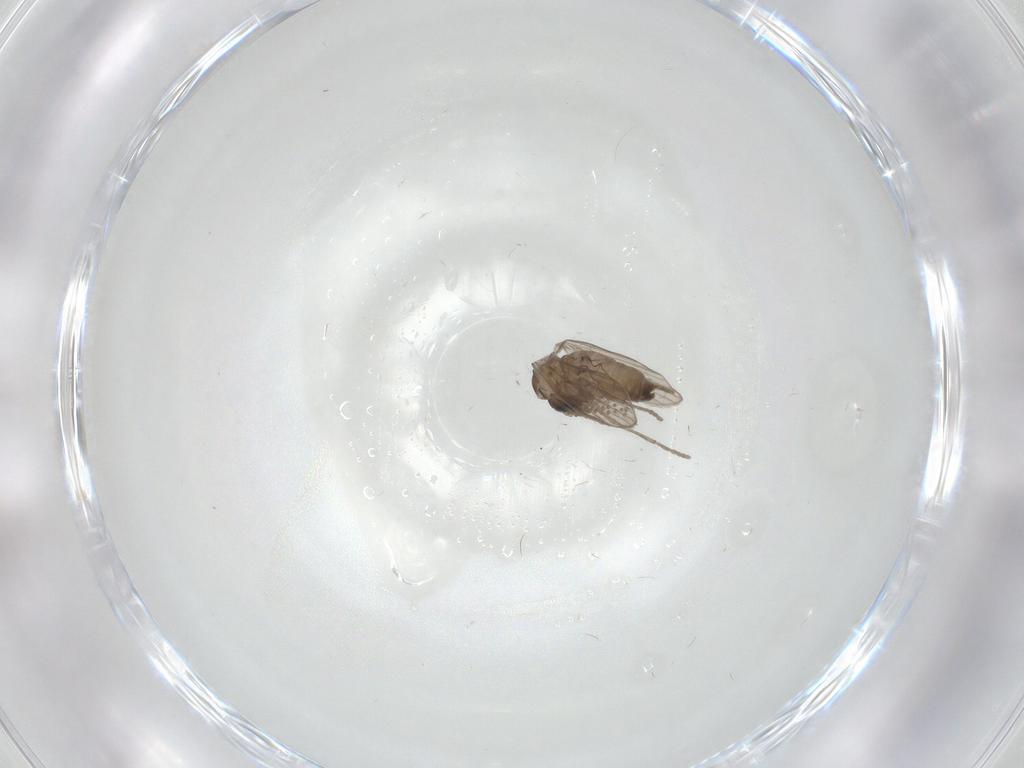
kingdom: Animalia
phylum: Arthropoda
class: Insecta
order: Diptera
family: Psychodidae
